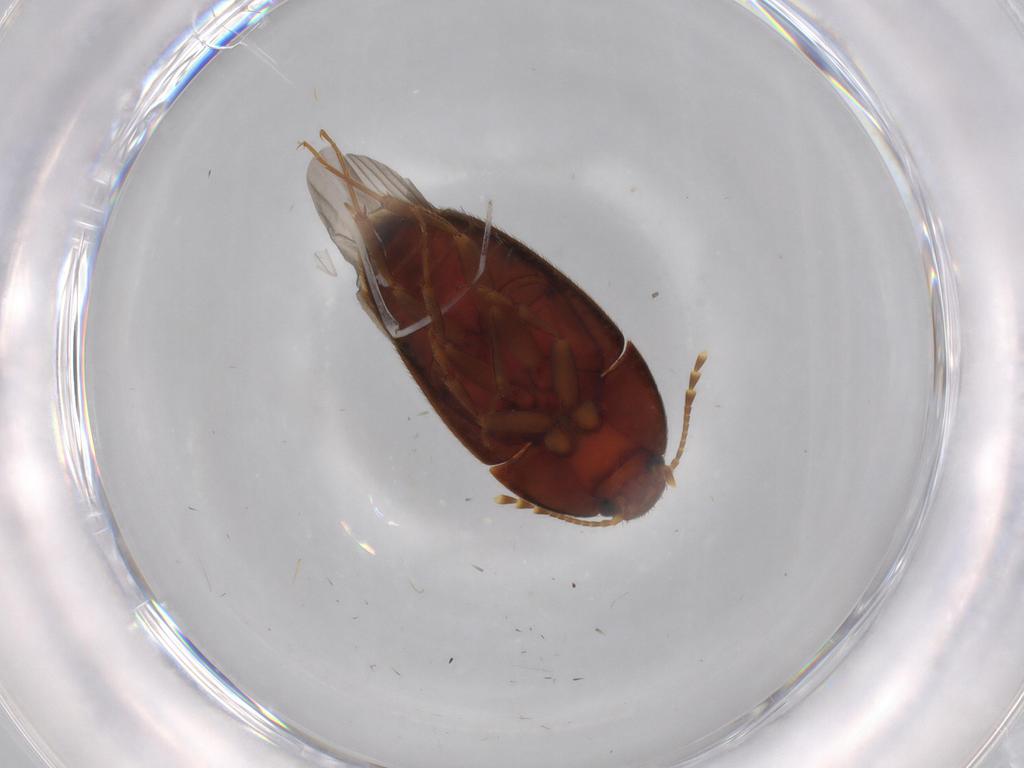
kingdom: Animalia
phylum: Arthropoda
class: Insecta
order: Coleoptera
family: Mycetophagidae
